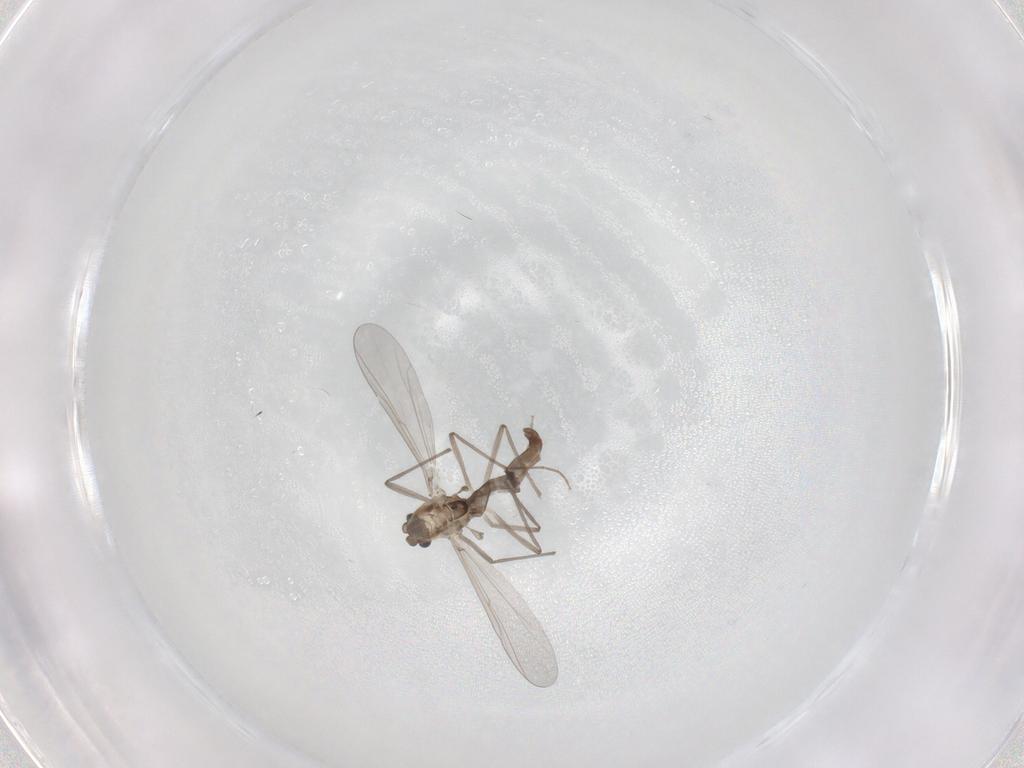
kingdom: Animalia
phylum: Arthropoda
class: Insecta
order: Diptera
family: Chironomidae
